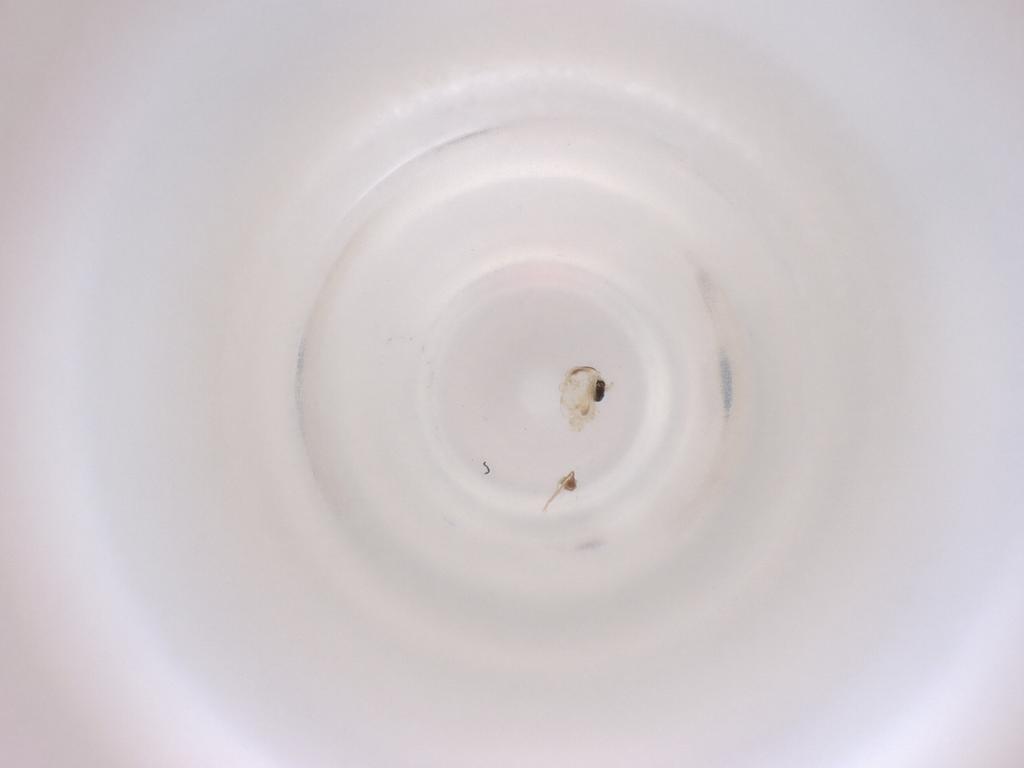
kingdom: Animalia
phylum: Arthropoda
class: Insecta
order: Diptera
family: Cecidomyiidae
